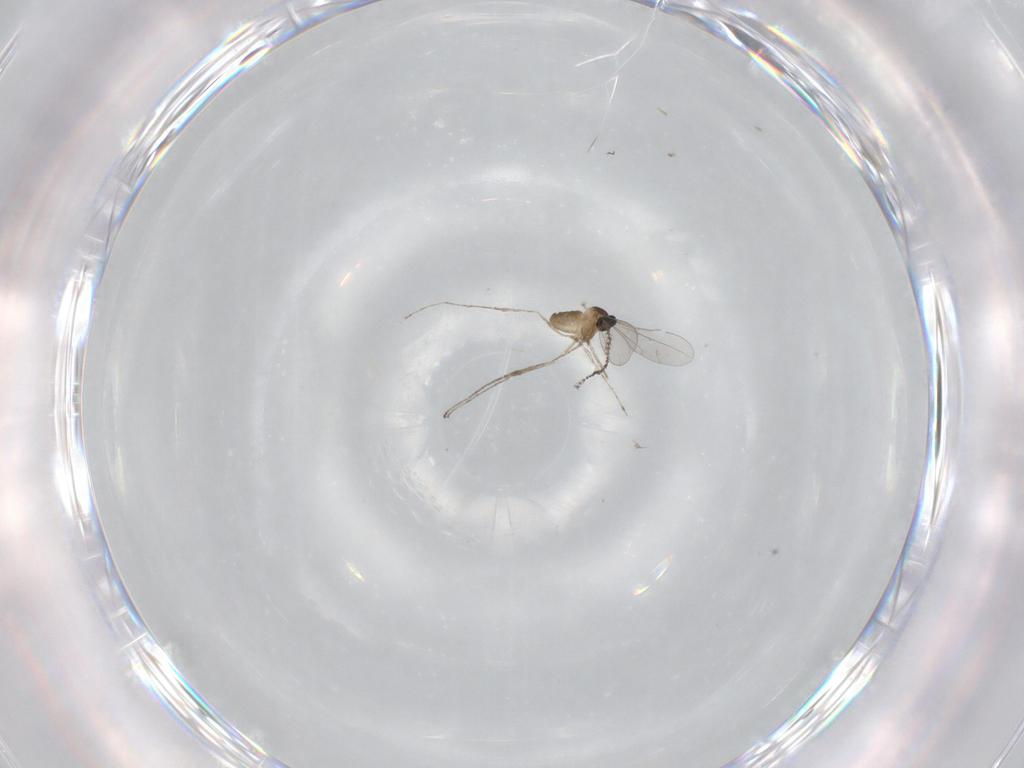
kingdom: Animalia
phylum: Arthropoda
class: Insecta
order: Diptera
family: Cecidomyiidae
